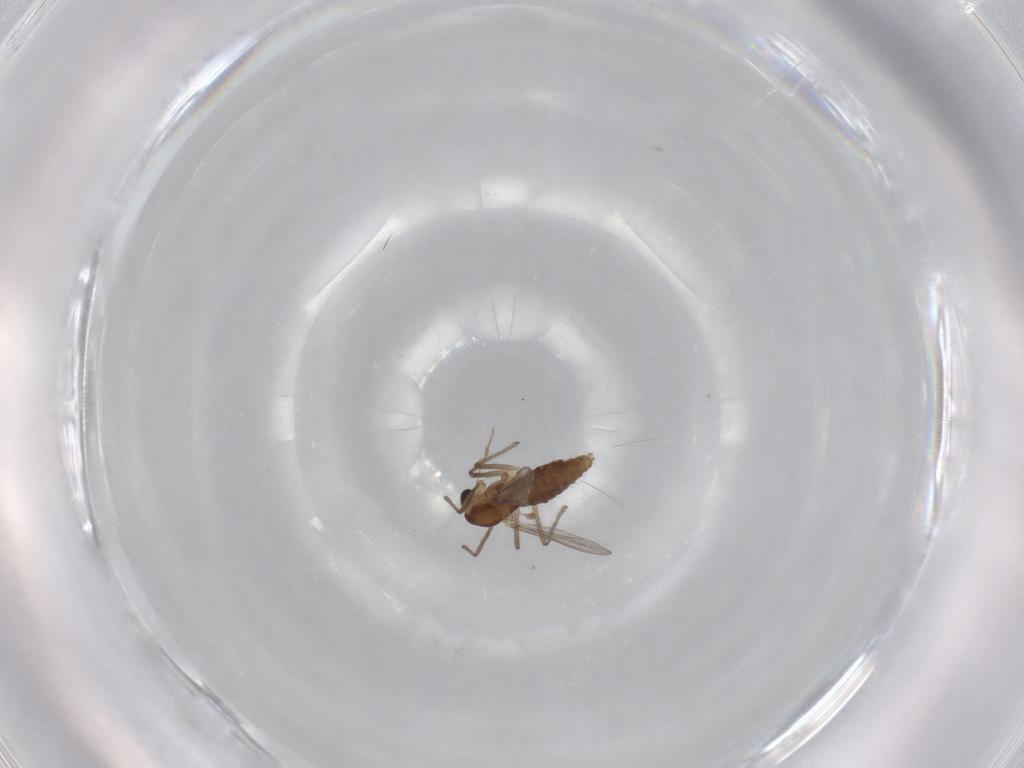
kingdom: Animalia
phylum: Arthropoda
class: Insecta
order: Diptera
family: Chironomidae
